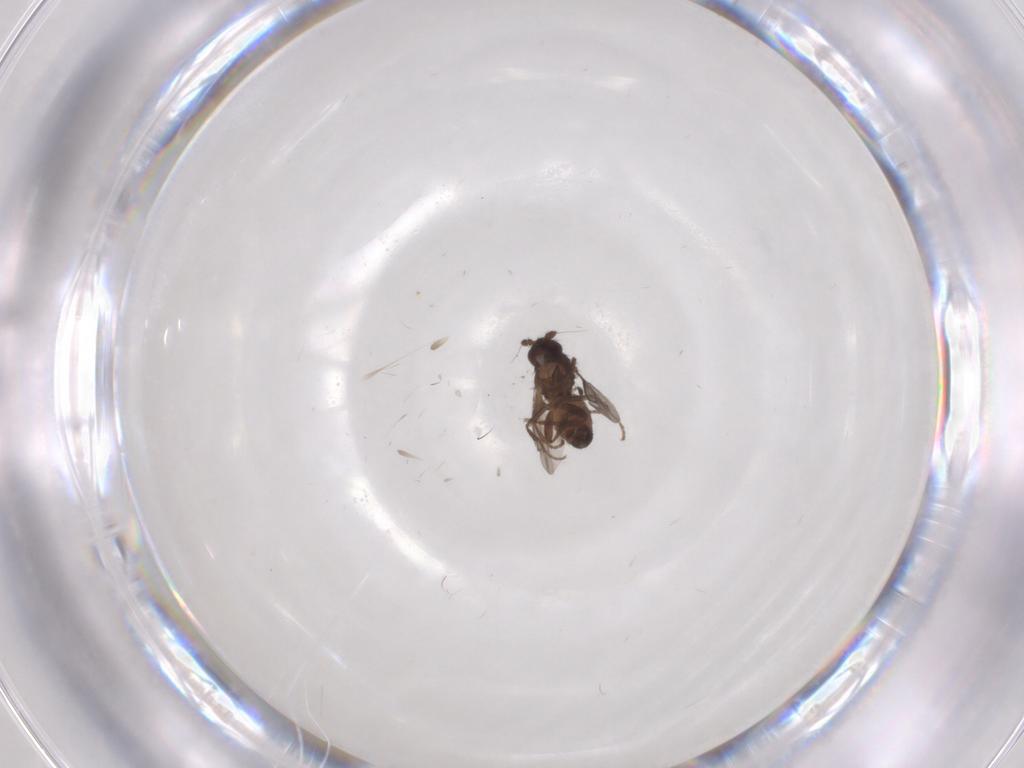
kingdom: Animalia
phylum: Arthropoda
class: Insecta
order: Diptera
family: Sphaeroceridae
